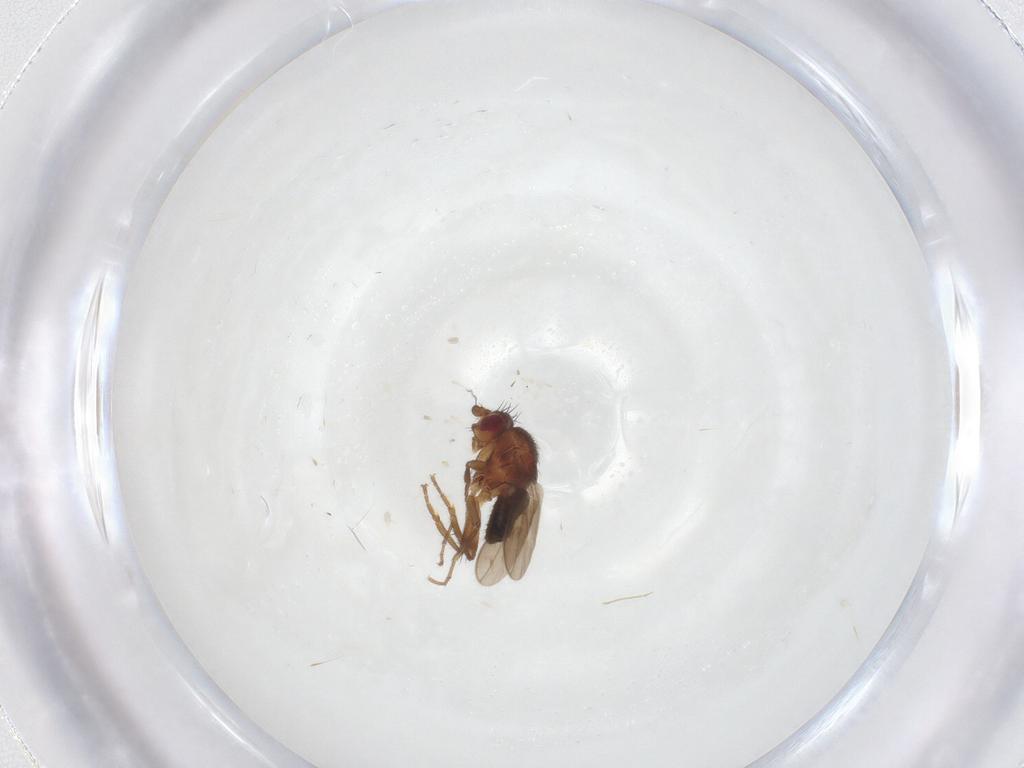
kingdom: Animalia
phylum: Arthropoda
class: Insecta
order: Diptera
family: Sphaeroceridae
